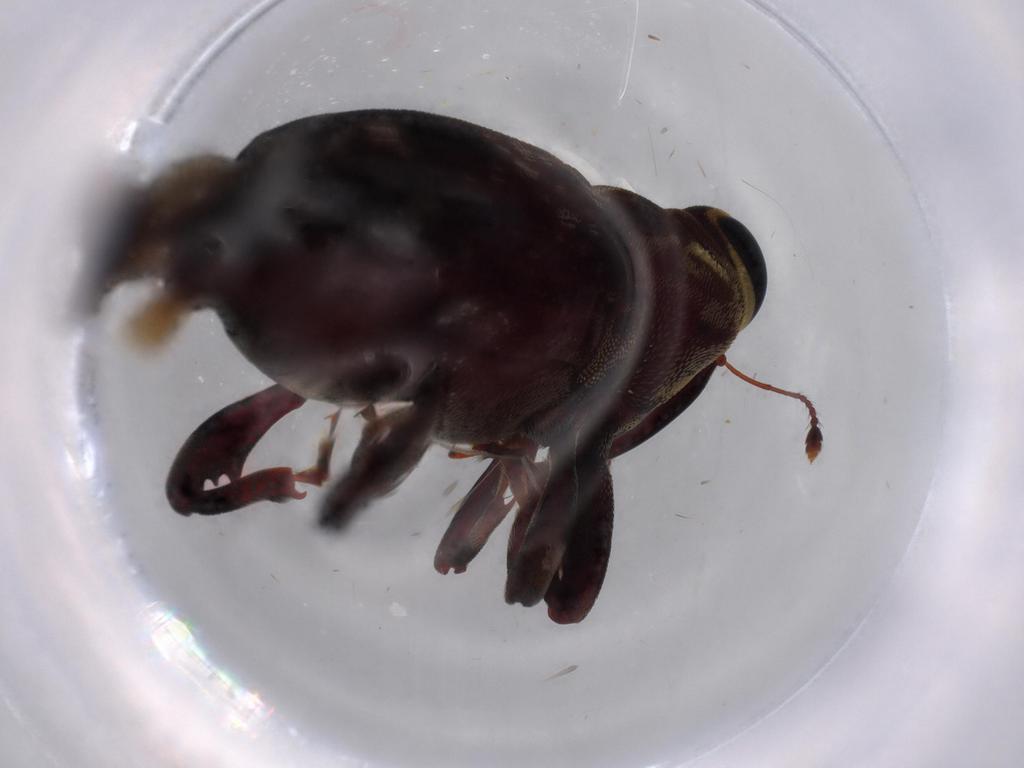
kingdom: Animalia
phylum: Arthropoda
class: Insecta
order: Coleoptera
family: Curculionidae
